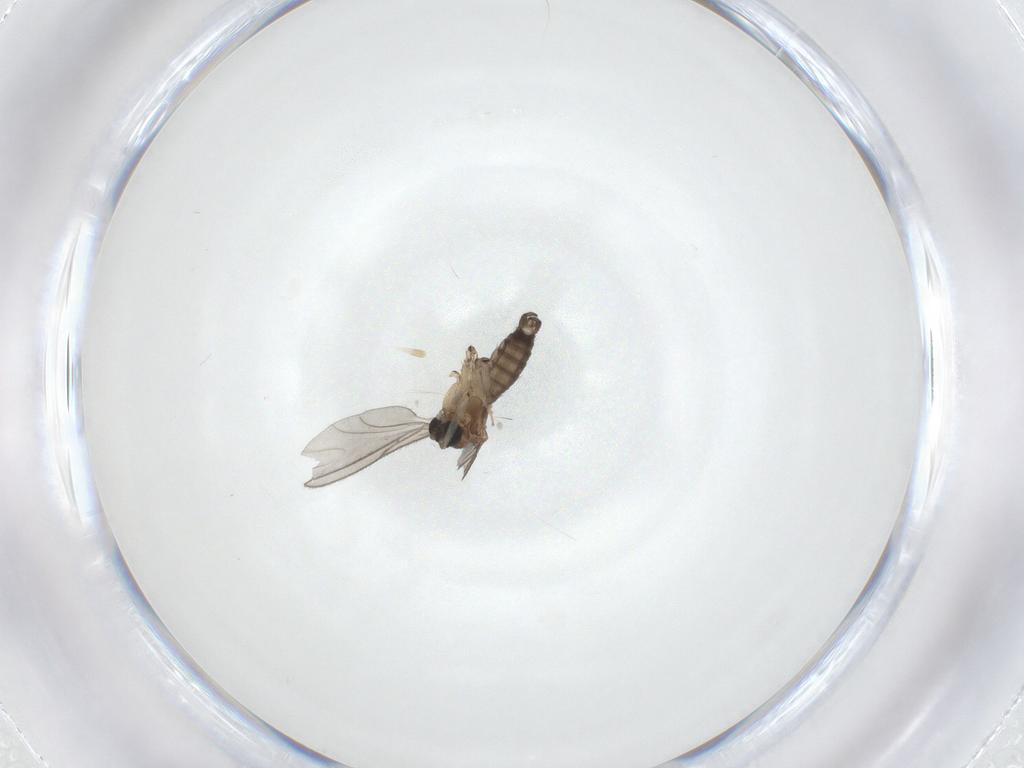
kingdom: Animalia
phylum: Arthropoda
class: Insecta
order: Diptera
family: Sciaridae
